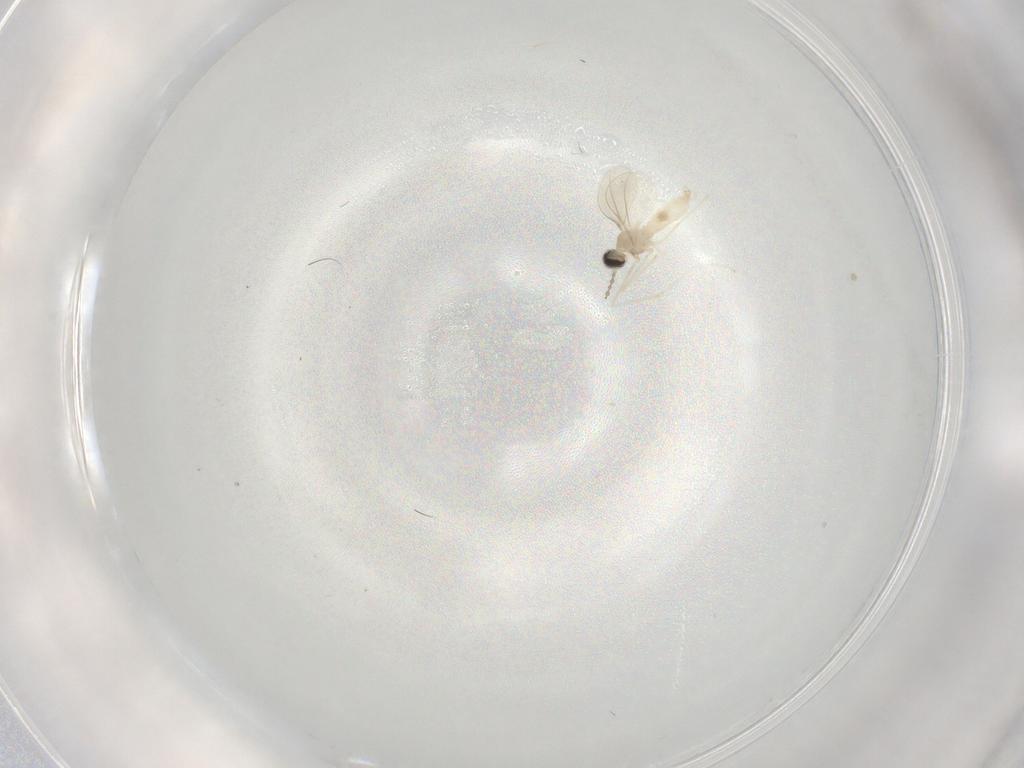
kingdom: Animalia
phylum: Arthropoda
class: Insecta
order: Diptera
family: Cecidomyiidae
